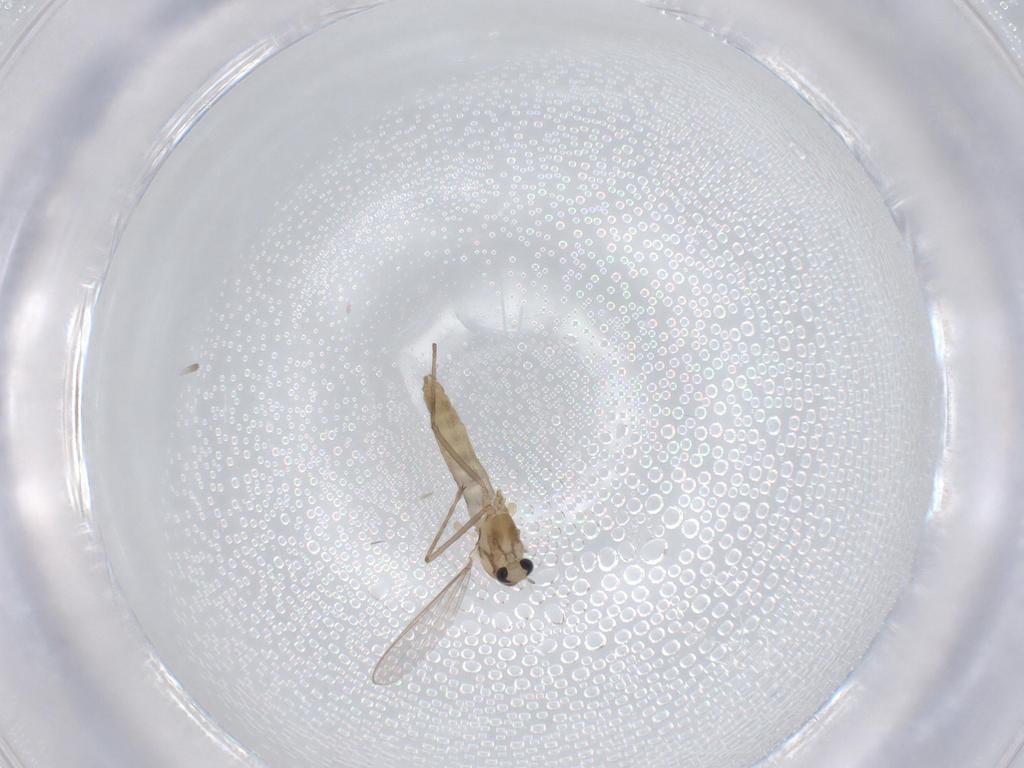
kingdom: Animalia
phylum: Arthropoda
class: Insecta
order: Diptera
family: Chironomidae
